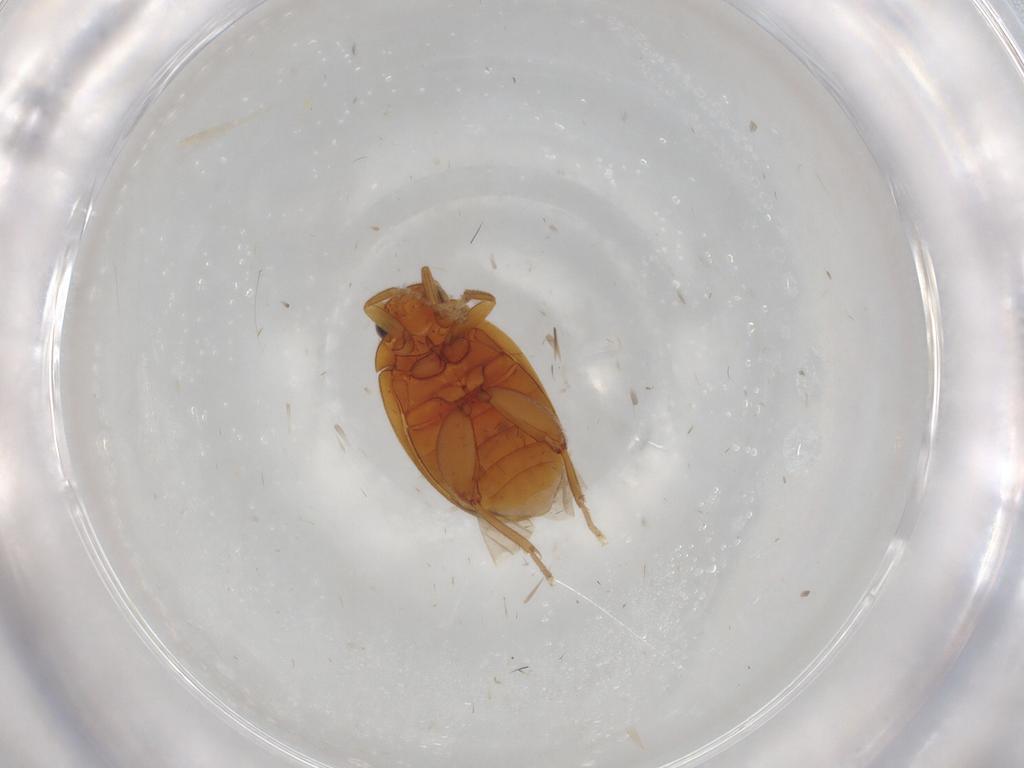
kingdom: Animalia
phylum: Arthropoda
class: Insecta
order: Coleoptera
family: Scirtidae
